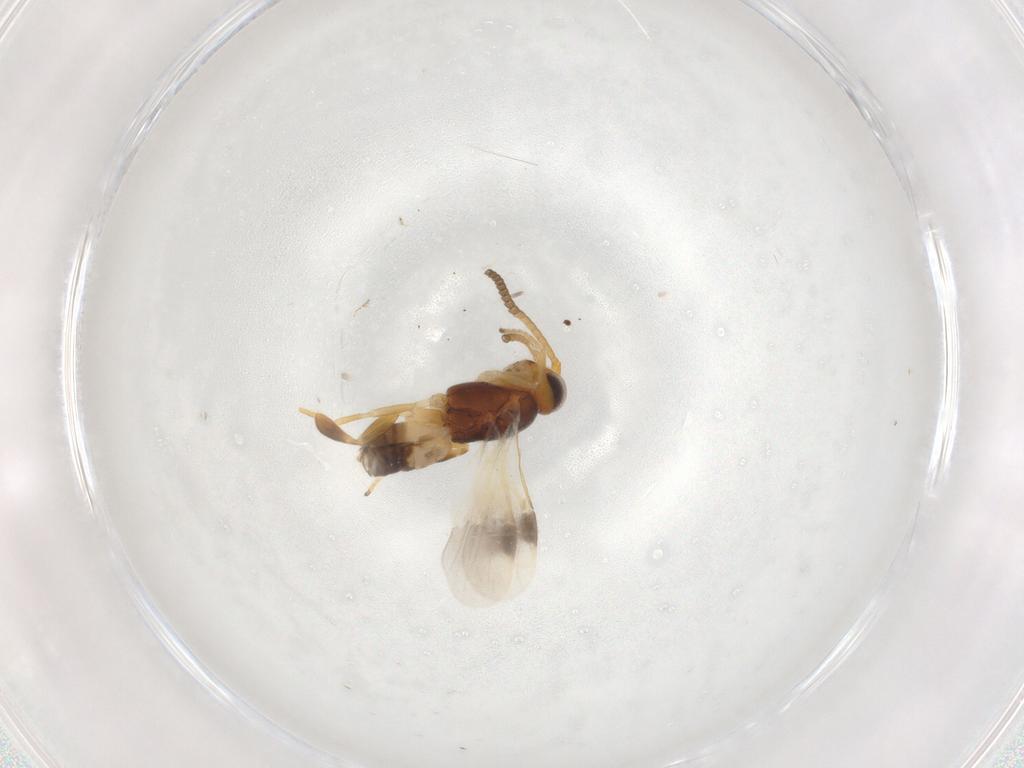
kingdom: Animalia
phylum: Arthropoda
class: Insecta
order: Hymenoptera
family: Braconidae
